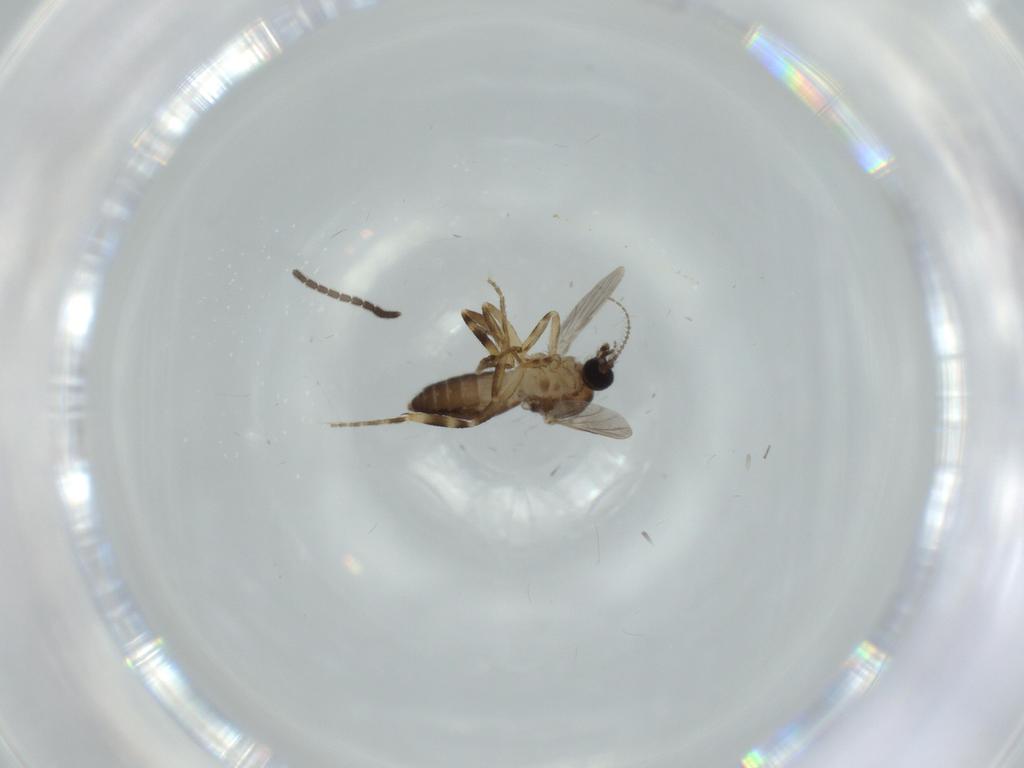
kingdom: Animalia
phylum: Arthropoda
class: Insecta
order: Diptera
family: Ceratopogonidae
